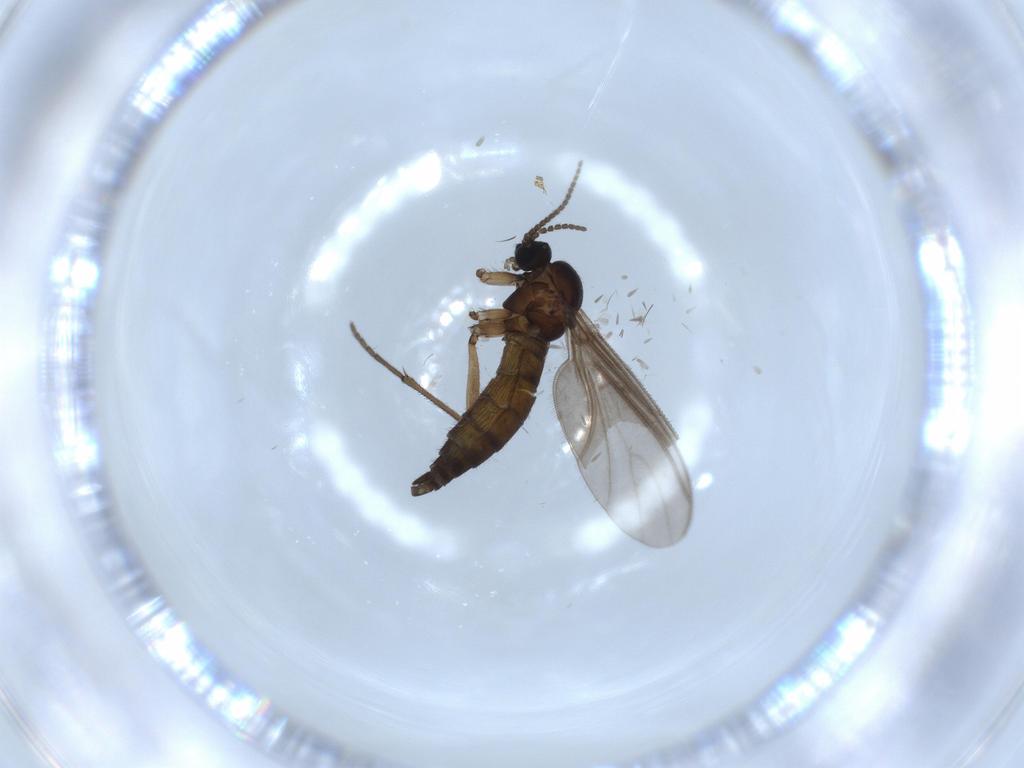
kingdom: Animalia
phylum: Arthropoda
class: Insecta
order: Diptera
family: Sciaridae
